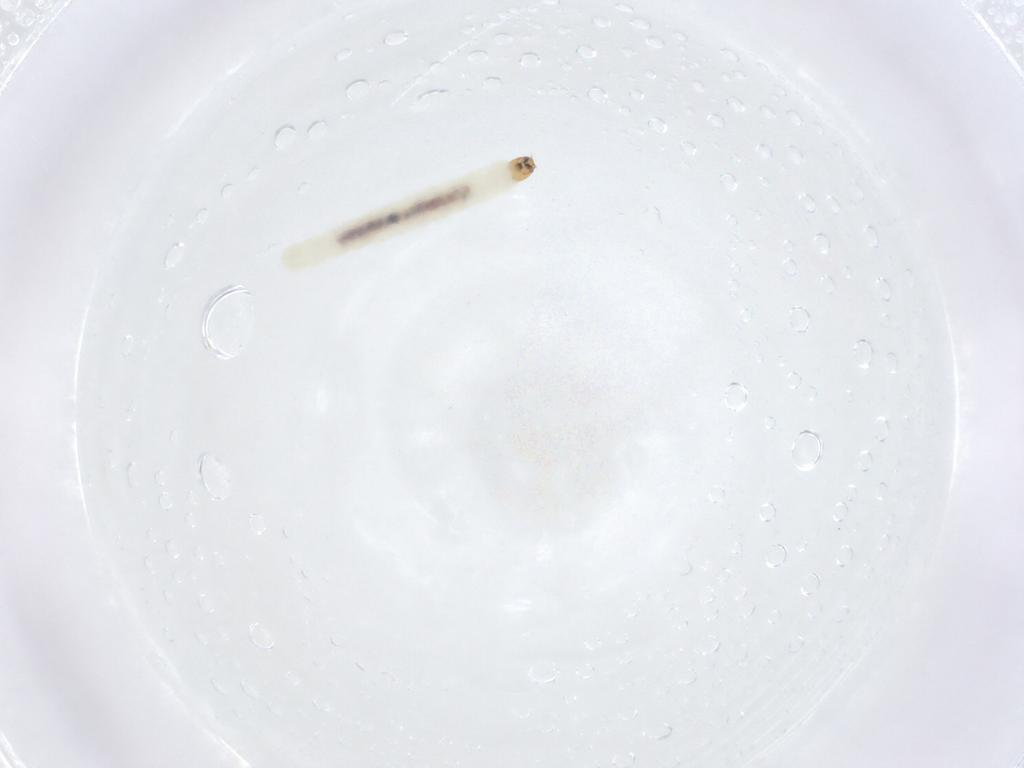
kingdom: Animalia
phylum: Arthropoda
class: Insecta
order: Diptera
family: Chironomidae
